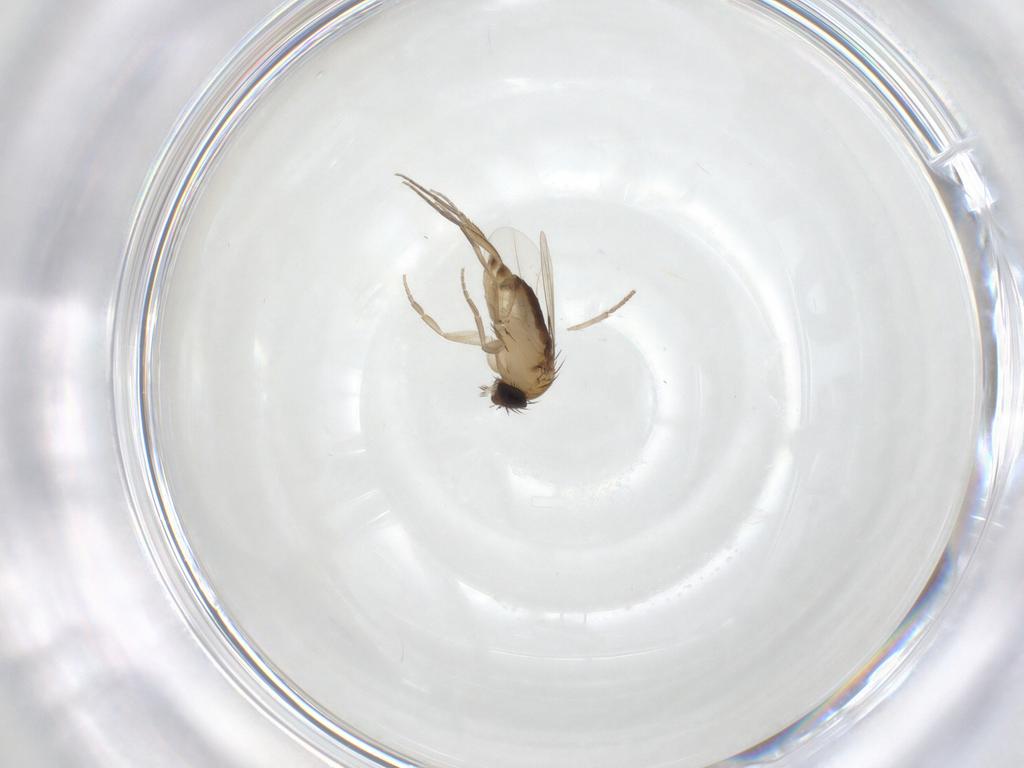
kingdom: Animalia
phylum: Arthropoda
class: Insecta
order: Diptera
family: Phoridae
